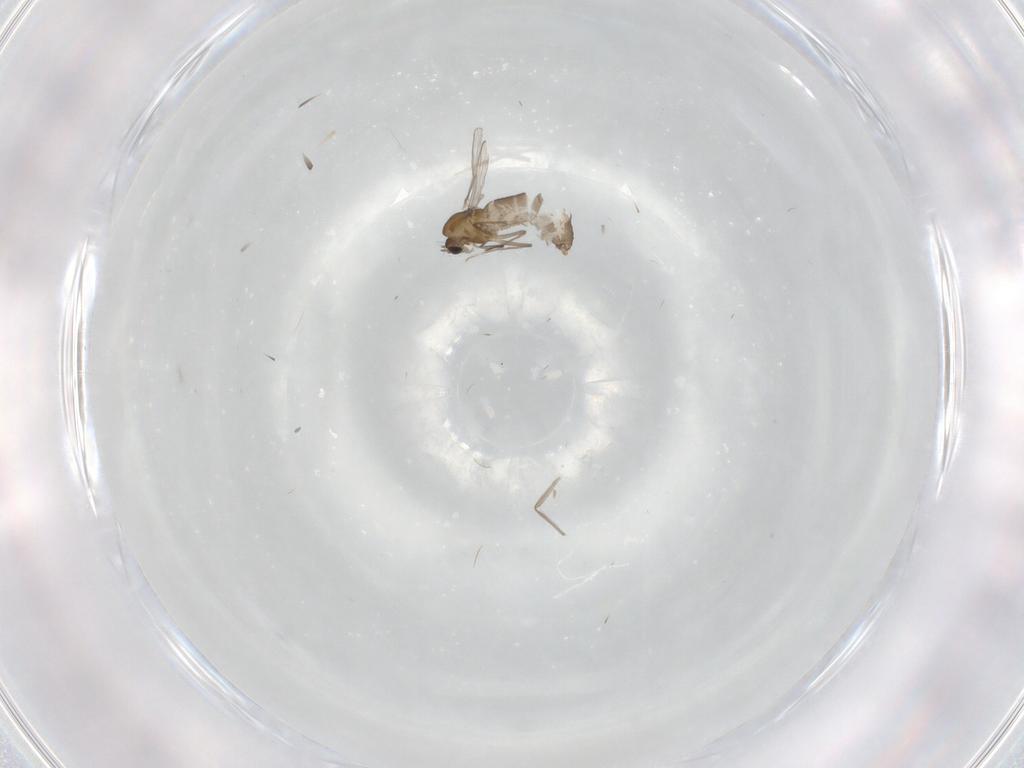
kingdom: Animalia
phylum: Arthropoda
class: Insecta
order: Diptera
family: Chironomidae
